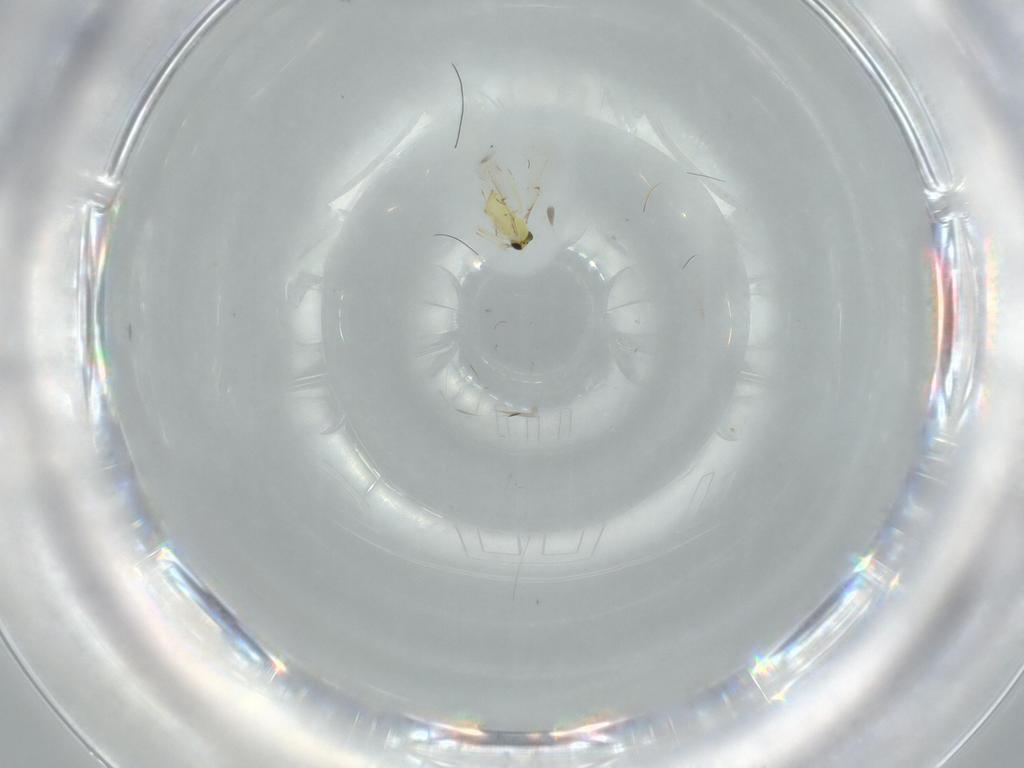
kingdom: Animalia
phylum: Arthropoda
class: Insecta
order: Hymenoptera
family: Trichogrammatidae
